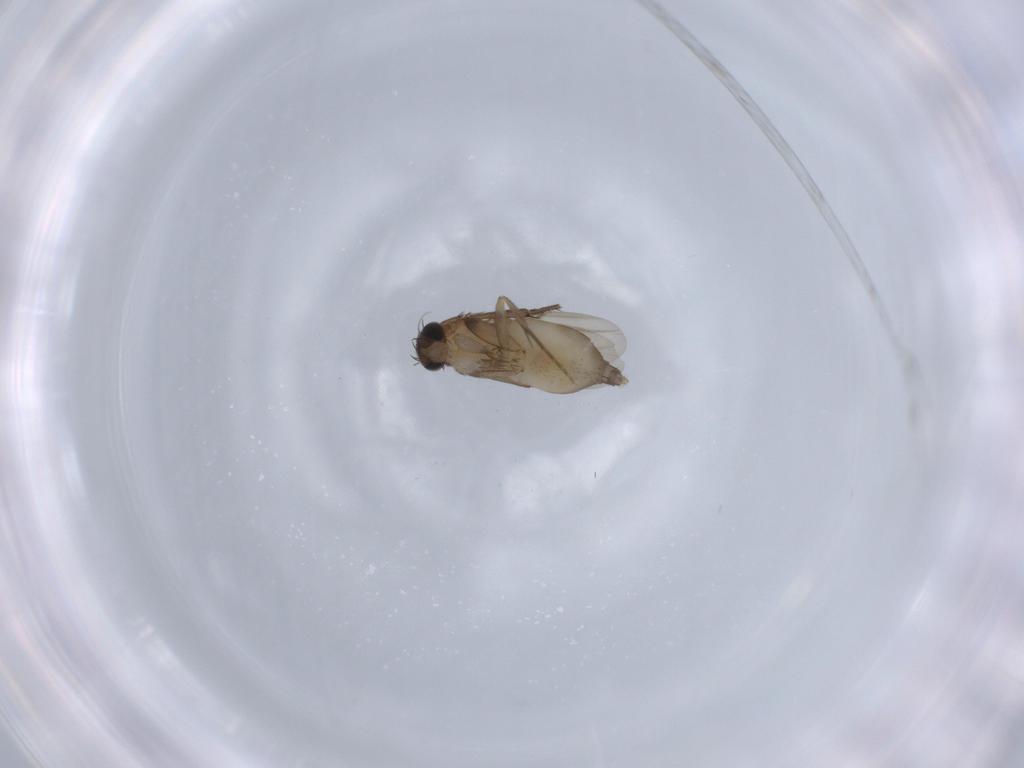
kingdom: Animalia
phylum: Arthropoda
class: Insecta
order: Diptera
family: Phoridae
